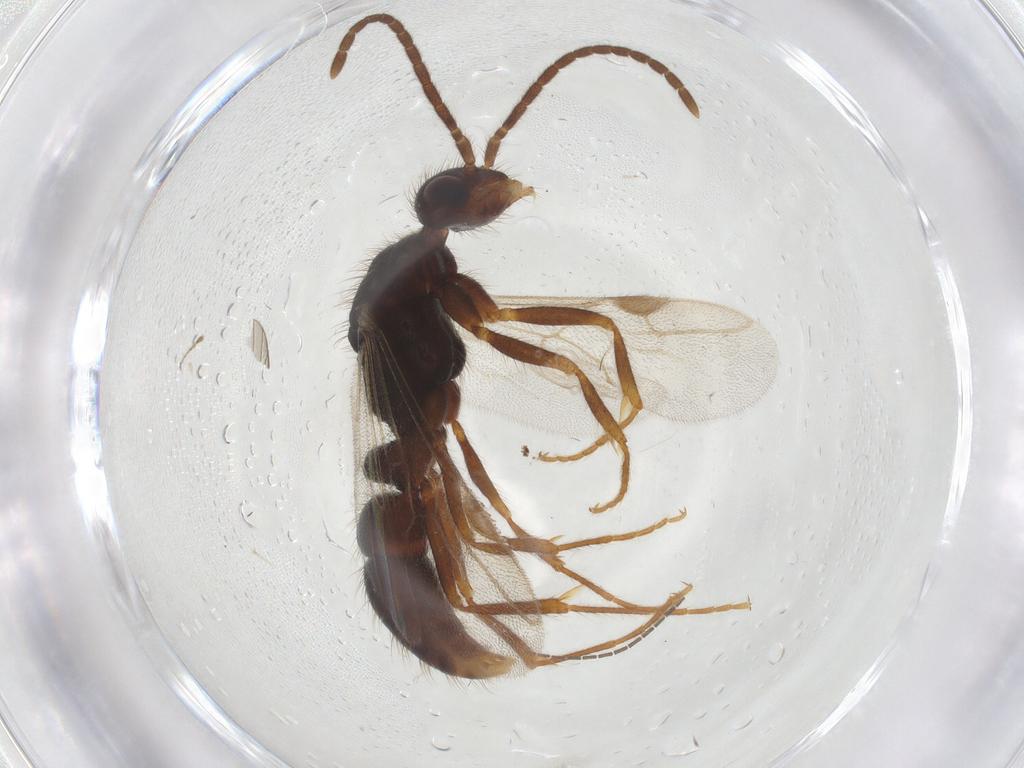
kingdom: Animalia
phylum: Arthropoda
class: Insecta
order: Hymenoptera
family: Formicidae
